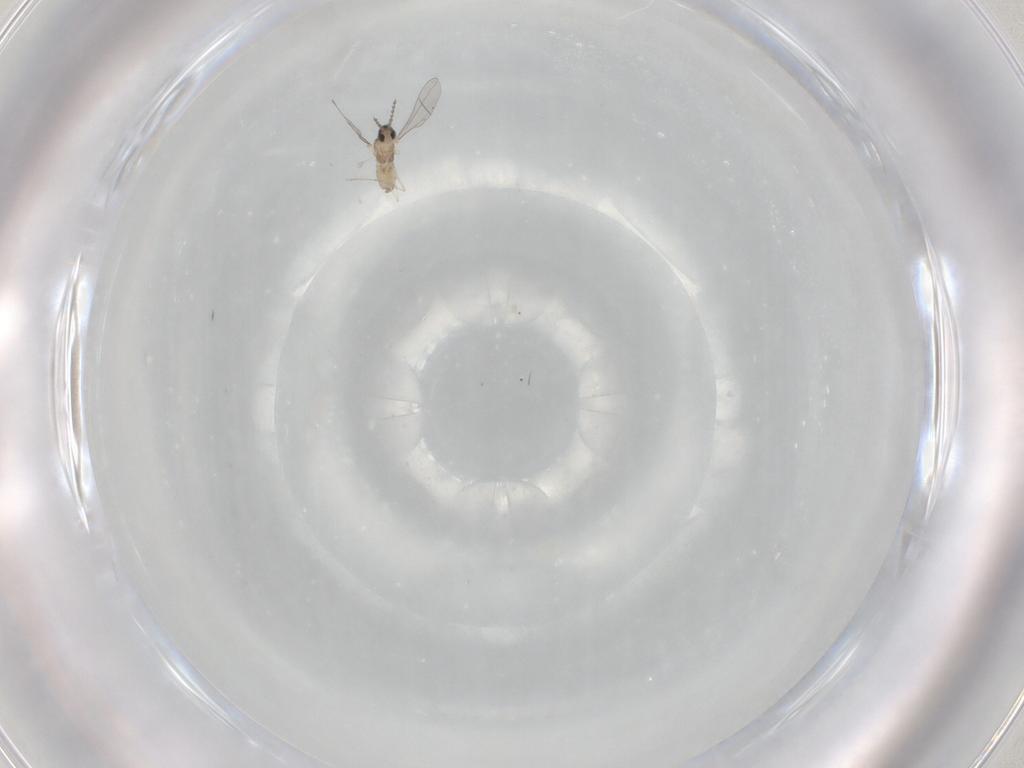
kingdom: Animalia
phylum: Arthropoda
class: Insecta
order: Diptera
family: Cecidomyiidae
